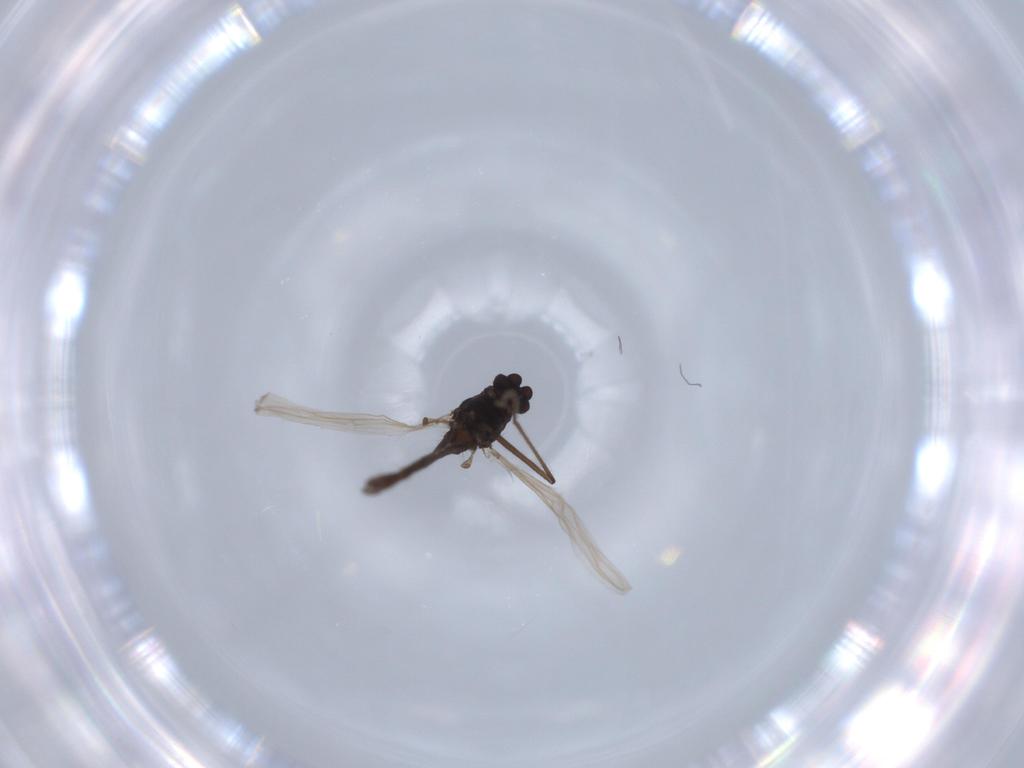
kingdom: Animalia
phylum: Arthropoda
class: Insecta
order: Diptera
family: Chironomidae
